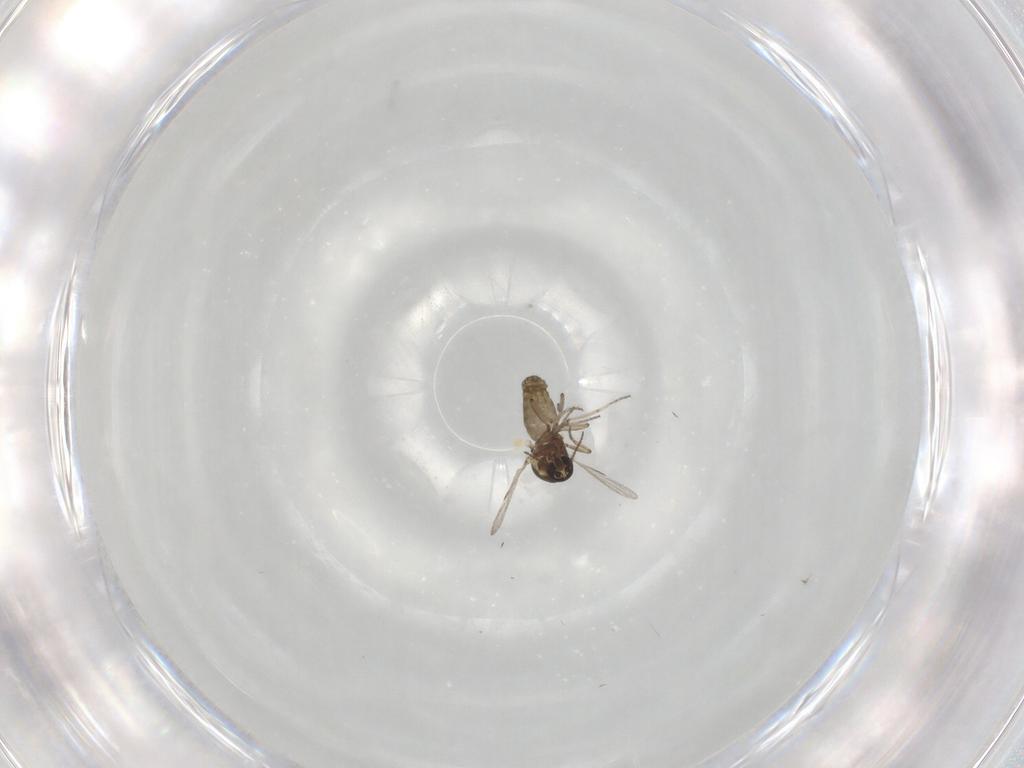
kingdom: Animalia
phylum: Arthropoda
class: Insecta
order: Diptera
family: Ceratopogonidae
